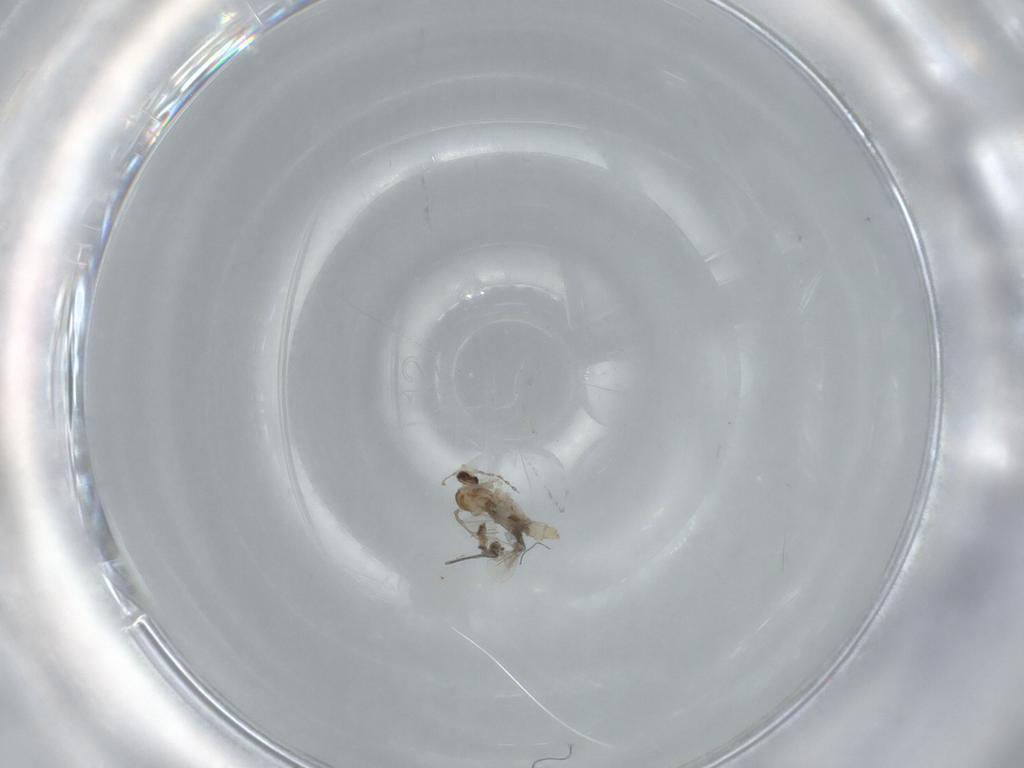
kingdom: Animalia
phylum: Arthropoda
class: Insecta
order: Diptera
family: Cecidomyiidae
